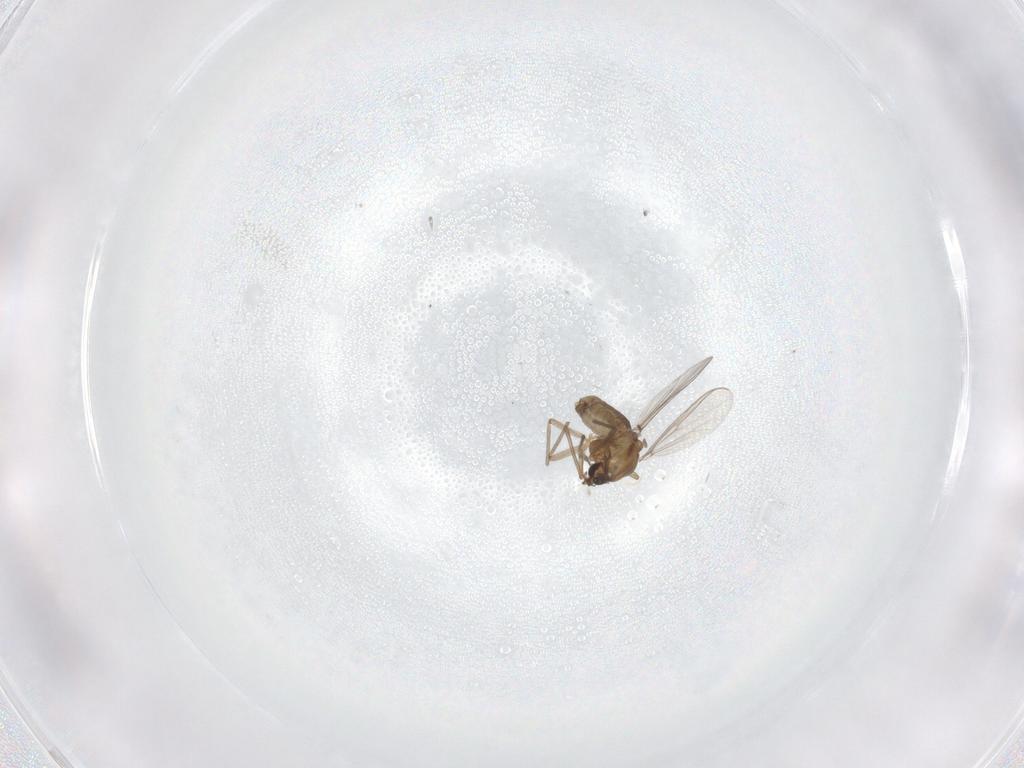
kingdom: Animalia
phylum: Arthropoda
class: Insecta
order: Diptera
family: Chironomidae
